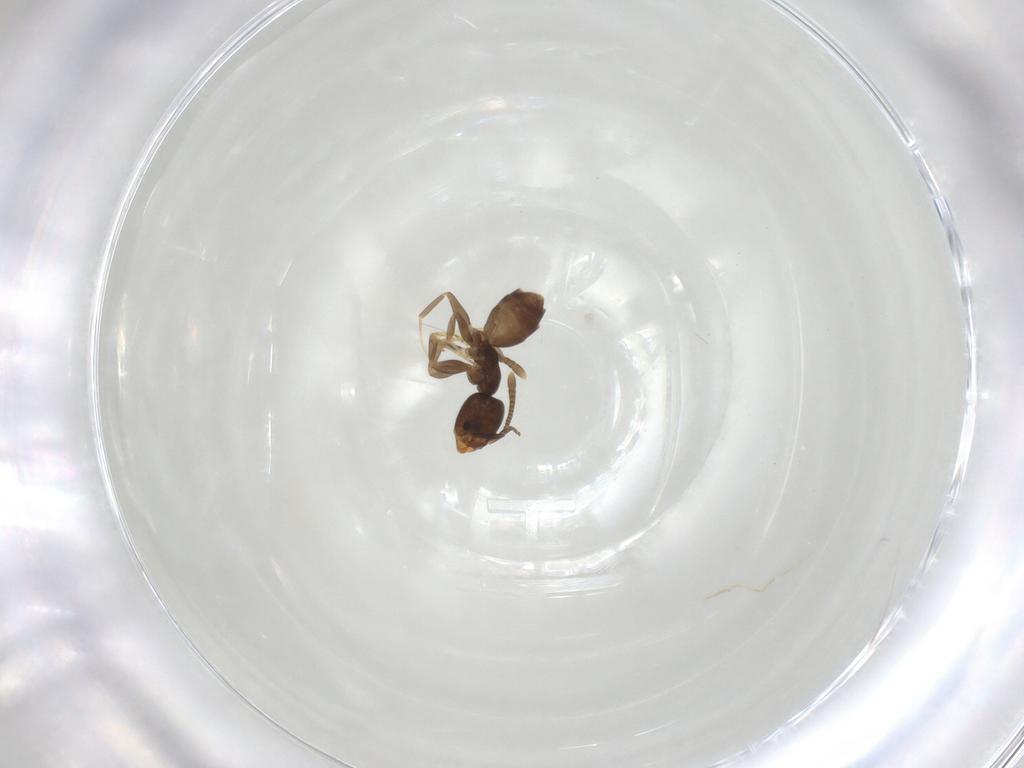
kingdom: Animalia
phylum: Arthropoda
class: Insecta
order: Hymenoptera
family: Formicidae
